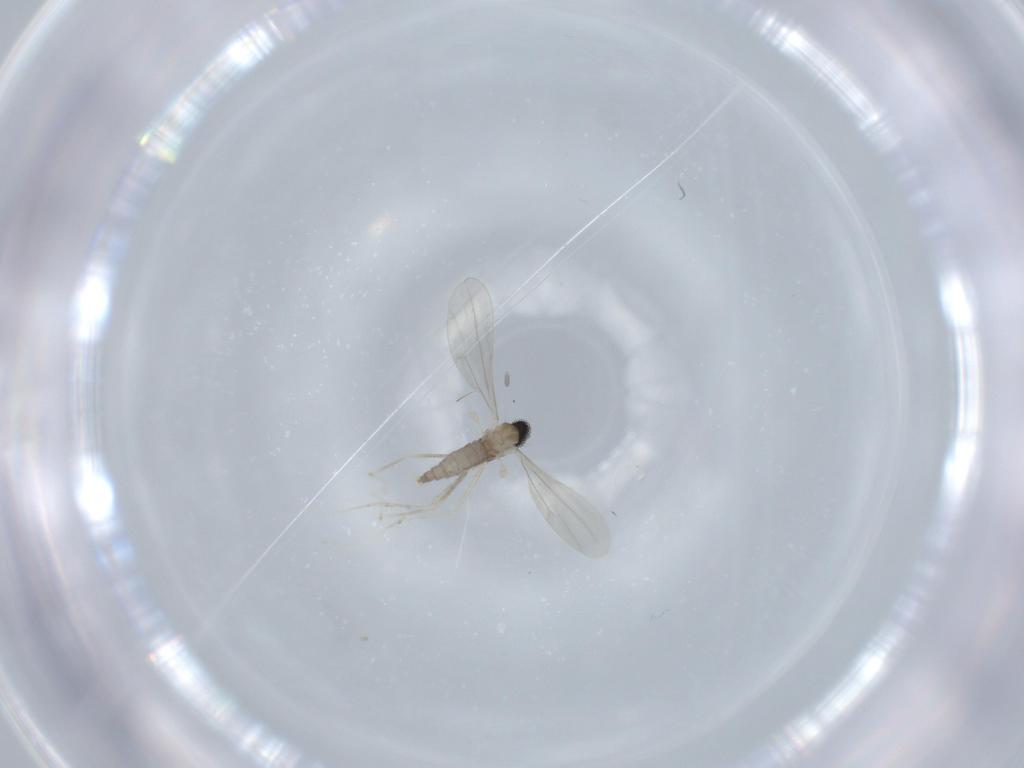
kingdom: Animalia
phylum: Arthropoda
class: Insecta
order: Diptera
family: Cecidomyiidae
